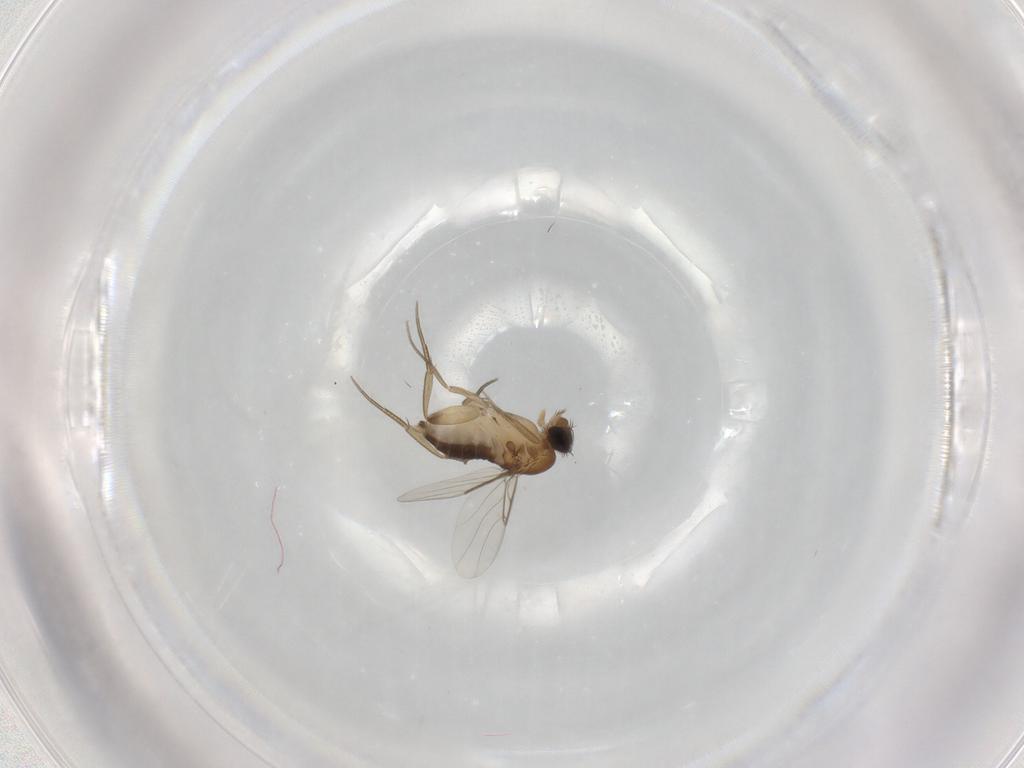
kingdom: Animalia
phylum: Arthropoda
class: Insecta
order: Diptera
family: Phoridae
